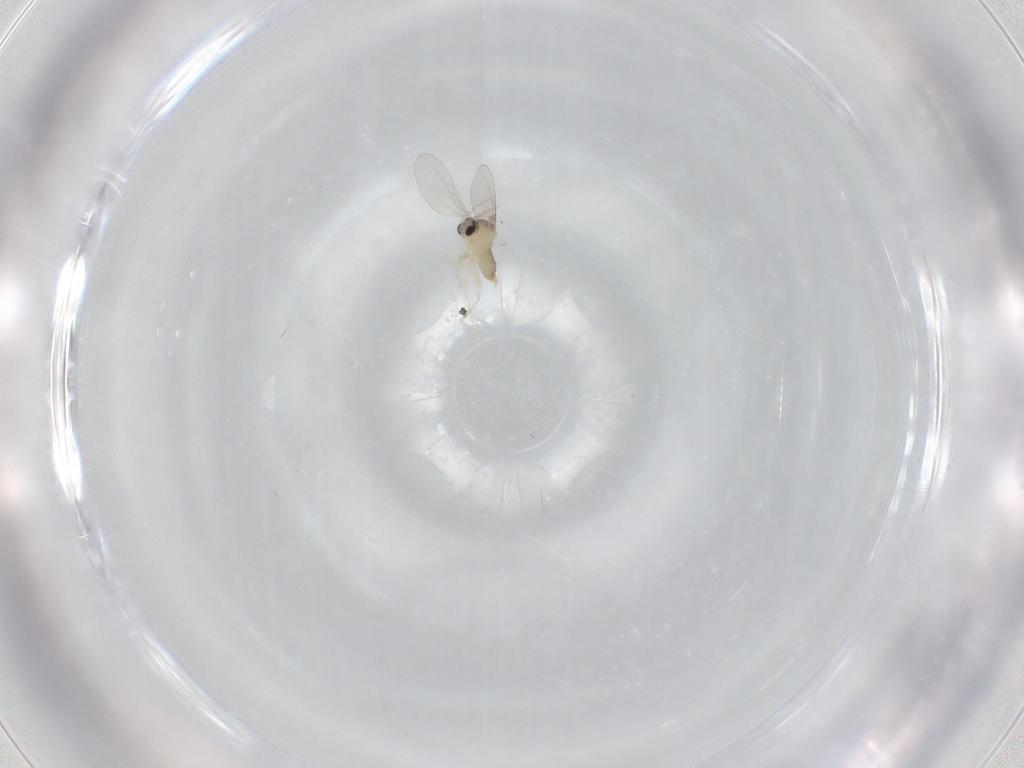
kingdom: Animalia
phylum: Arthropoda
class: Insecta
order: Diptera
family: Cecidomyiidae
